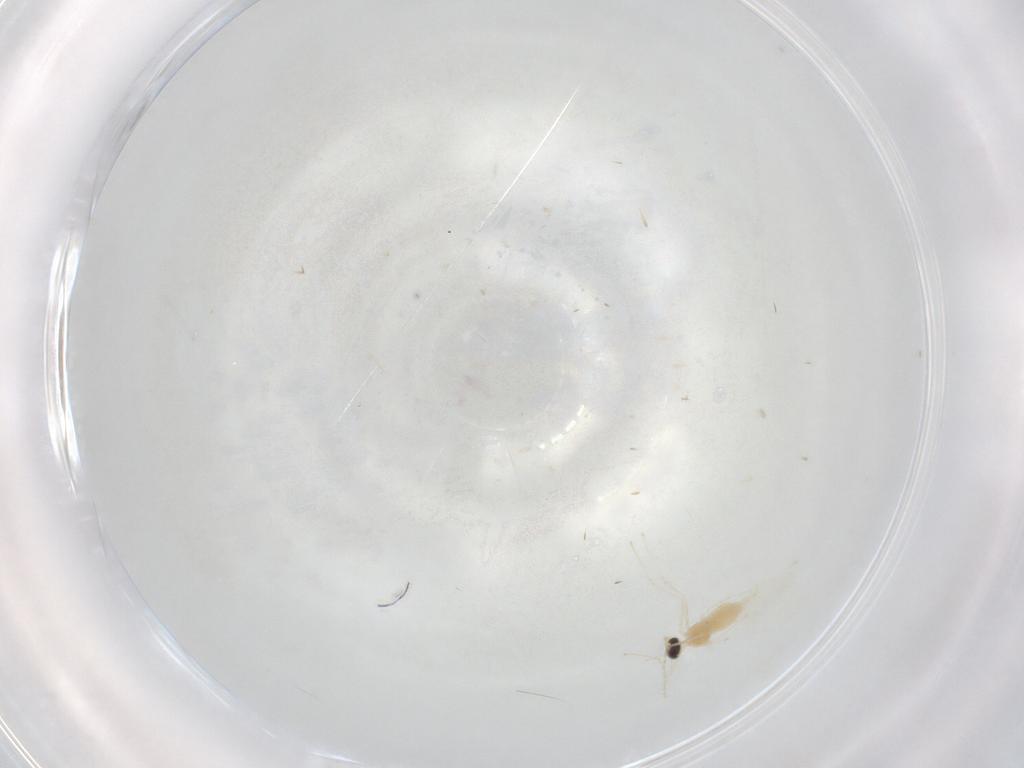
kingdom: Animalia
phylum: Arthropoda
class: Insecta
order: Diptera
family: Cecidomyiidae
